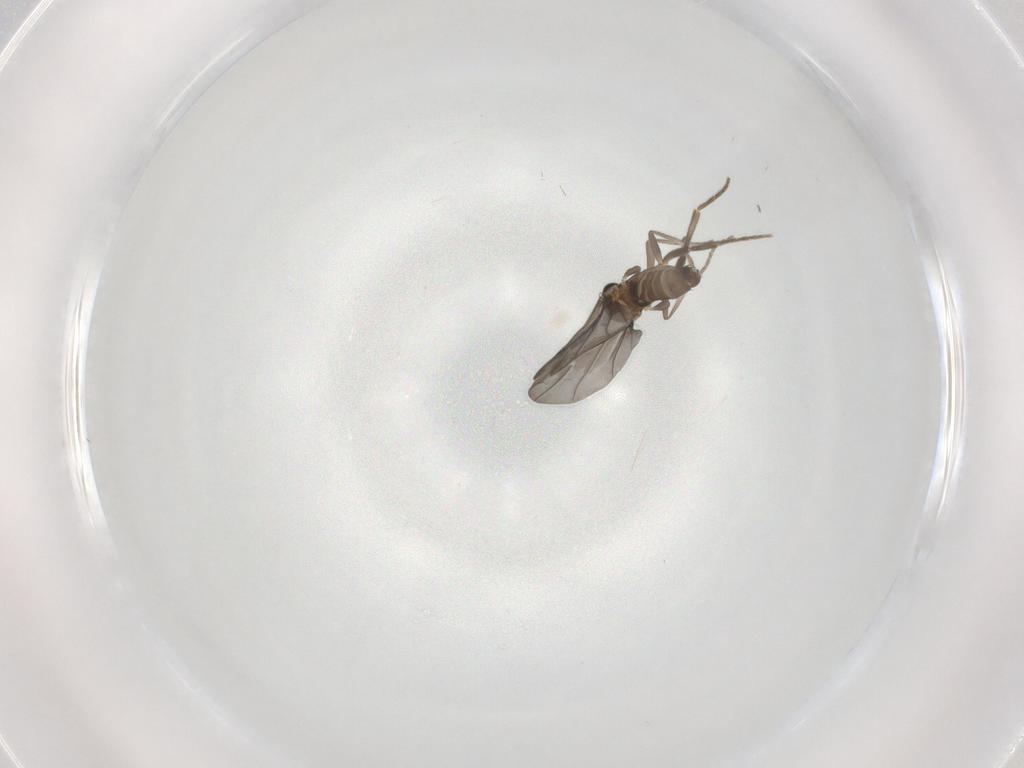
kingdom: Animalia
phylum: Arthropoda
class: Insecta
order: Diptera
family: Phoridae
